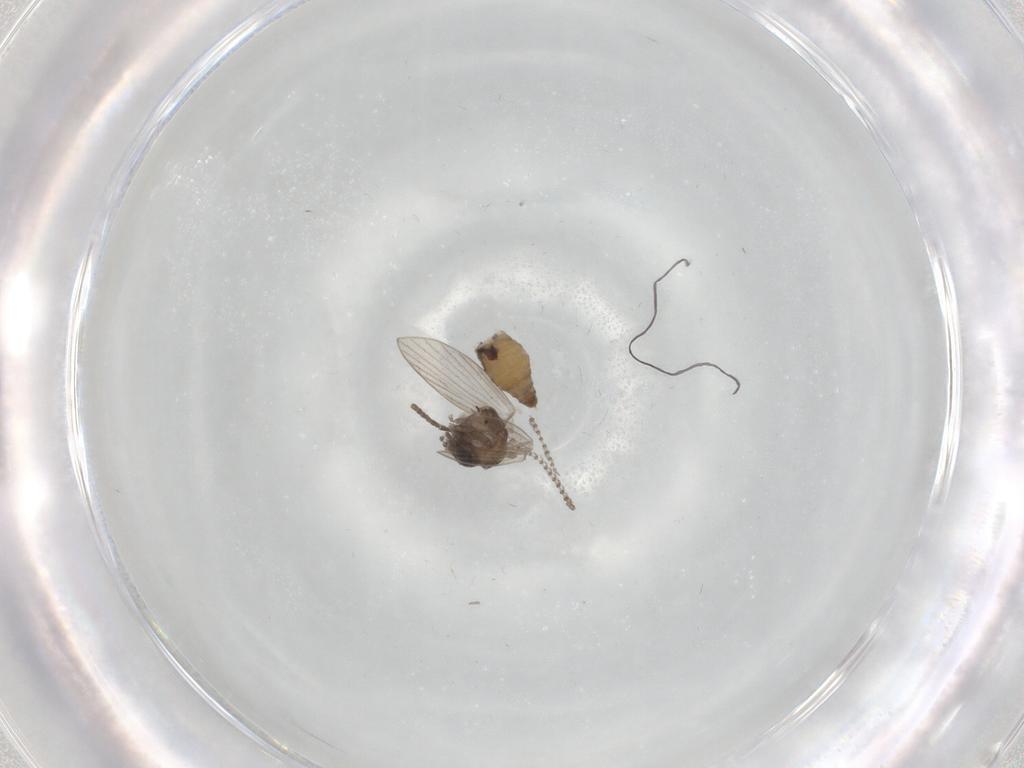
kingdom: Animalia
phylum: Arthropoda
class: Insecta
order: Diptera
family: Psychodidae
